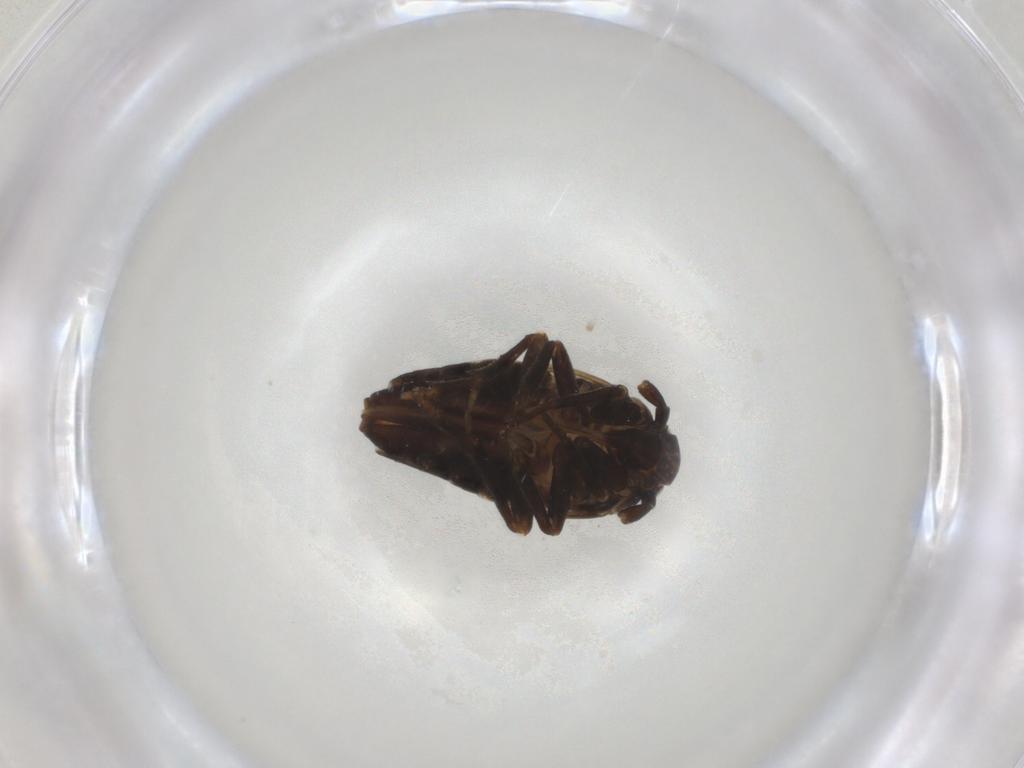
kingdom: Animalia
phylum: Arthropoda
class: Insecta
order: Hemiptera
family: Delphacidae
